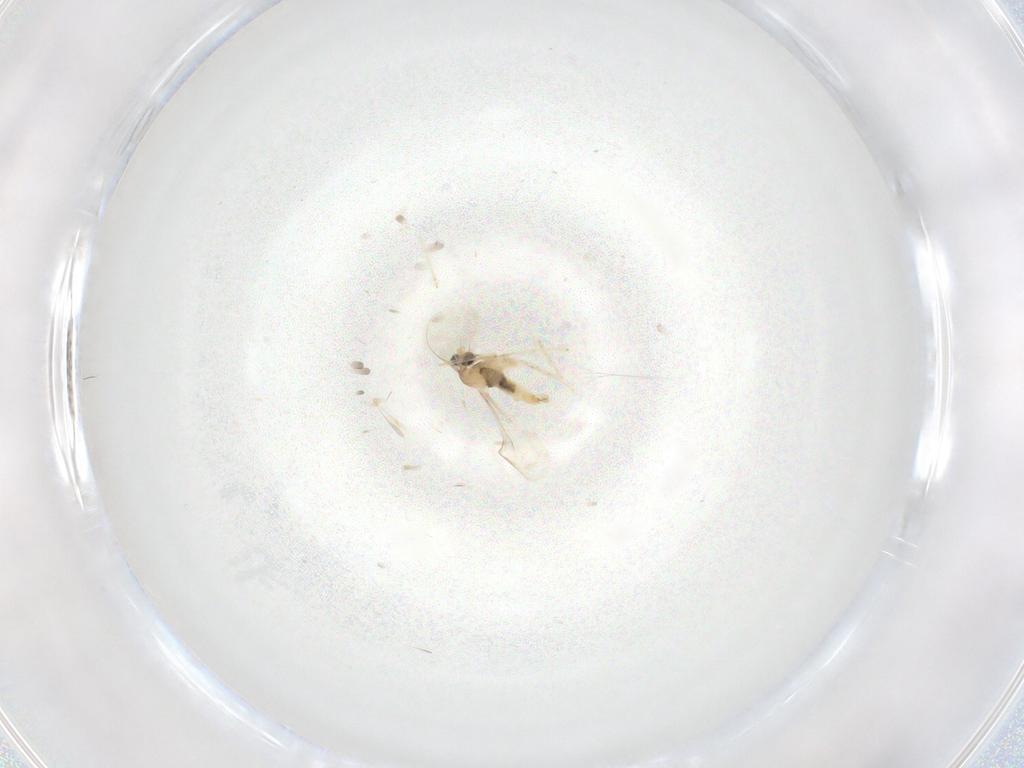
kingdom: Animalia
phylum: Arthropoda
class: Insecta
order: Diptera
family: Cecidomyiidae
